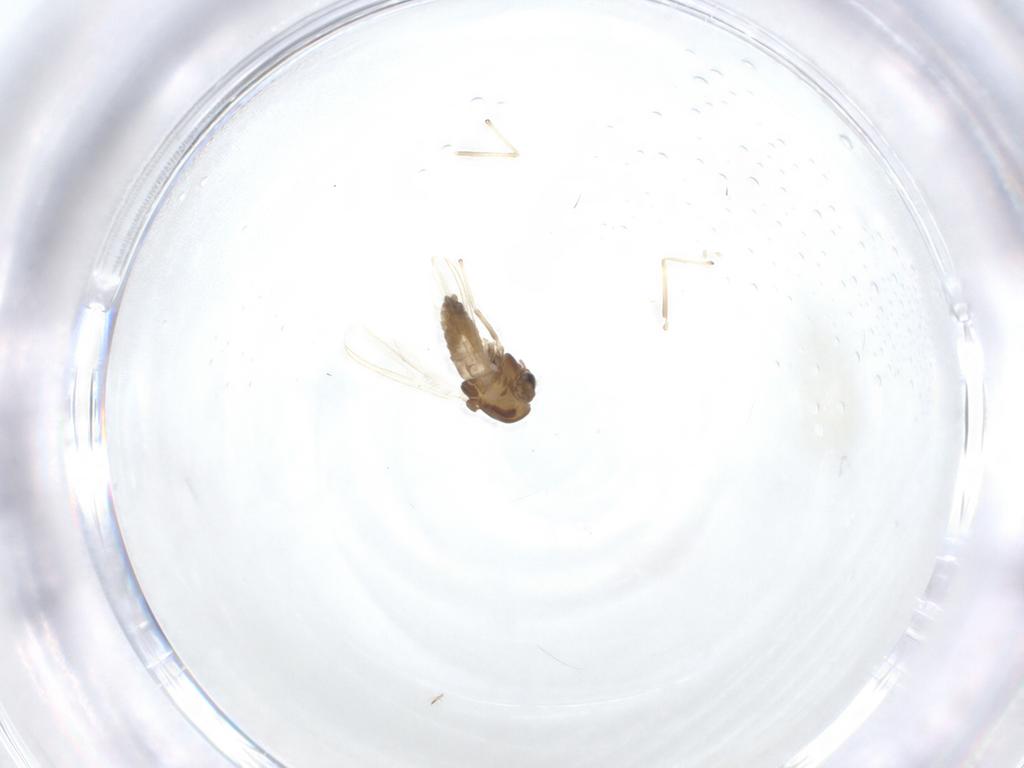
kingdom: Animalia
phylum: Arthropoda
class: Insecta
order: Diptera
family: Chironomidae
